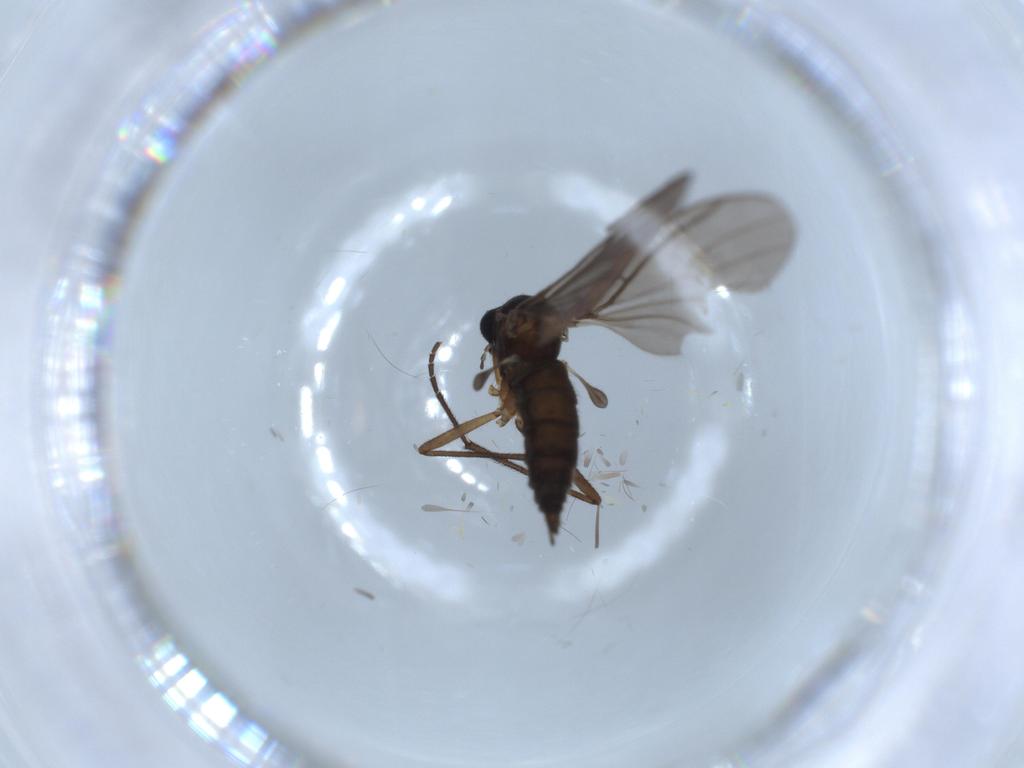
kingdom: Animalia
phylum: Arthropoda
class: Insecta
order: Diptera
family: Sciaridae
